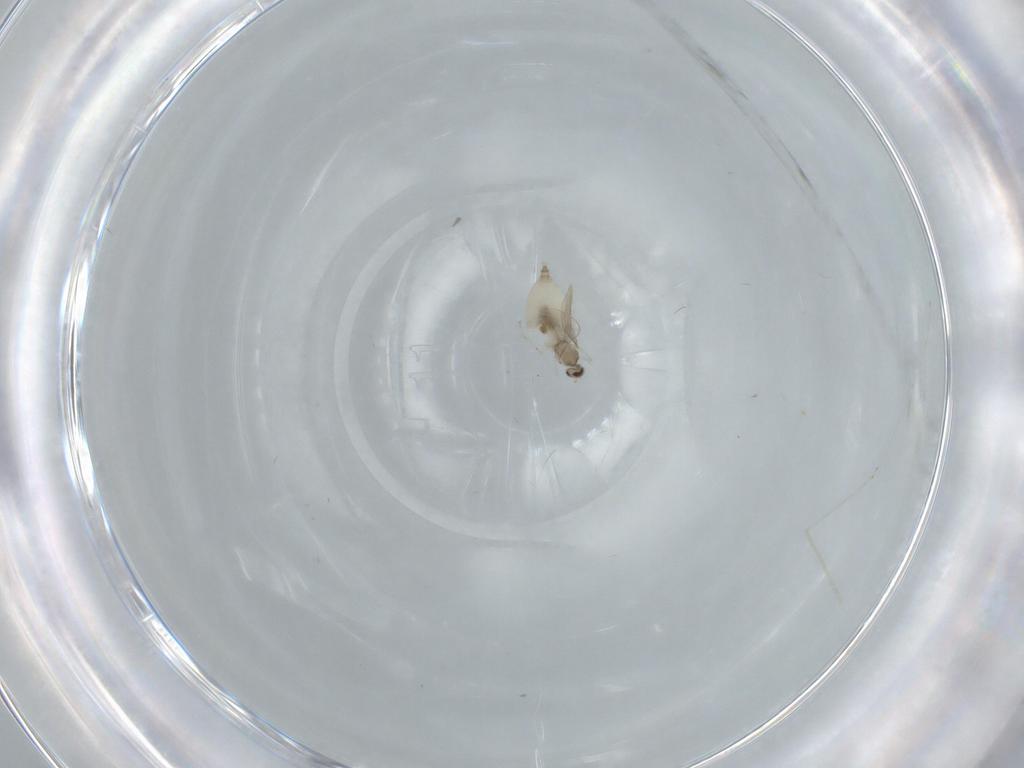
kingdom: Animalia
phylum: Arthropoda
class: Insecta
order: Diptera
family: Cecidomyiidae
